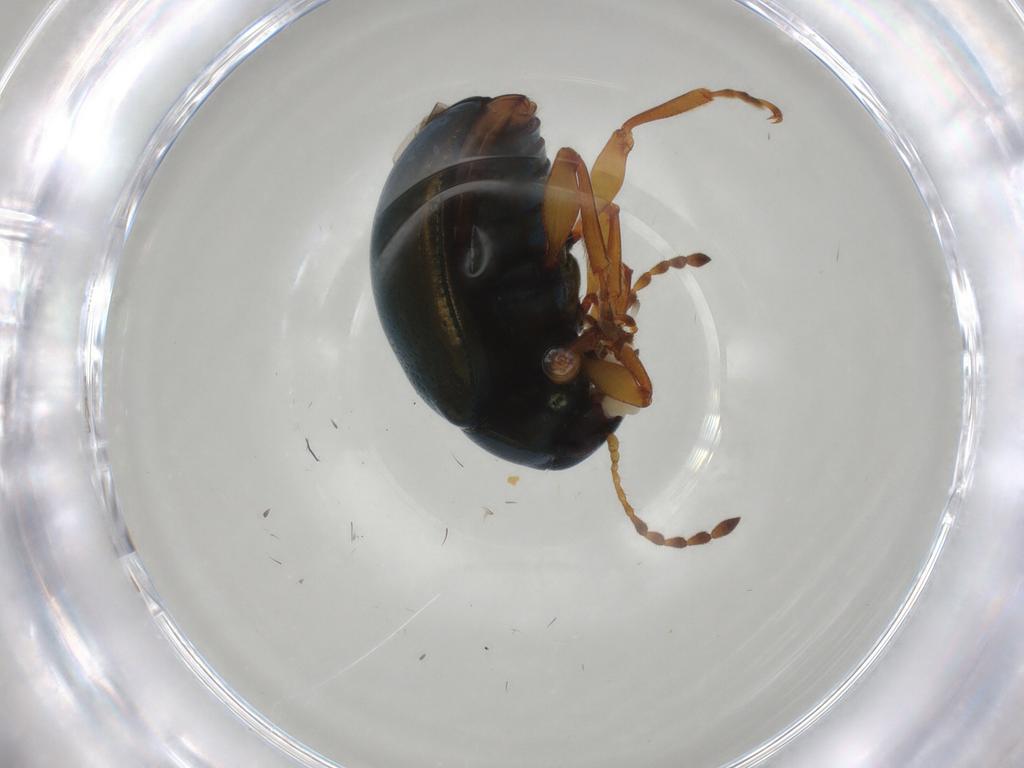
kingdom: Animalia
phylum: Arthropoda
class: Insecta
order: Coleoptera
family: Chrysomelidae
